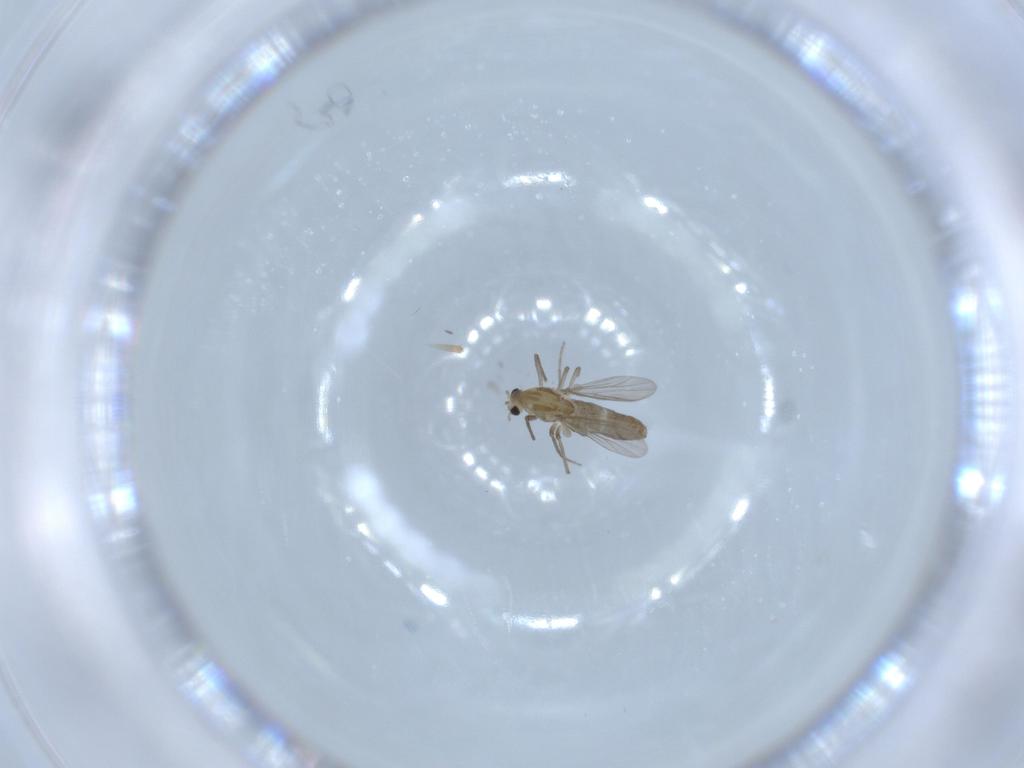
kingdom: Animalia
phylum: Arthropoda
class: Insecta
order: Diptera
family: Chironomidae
